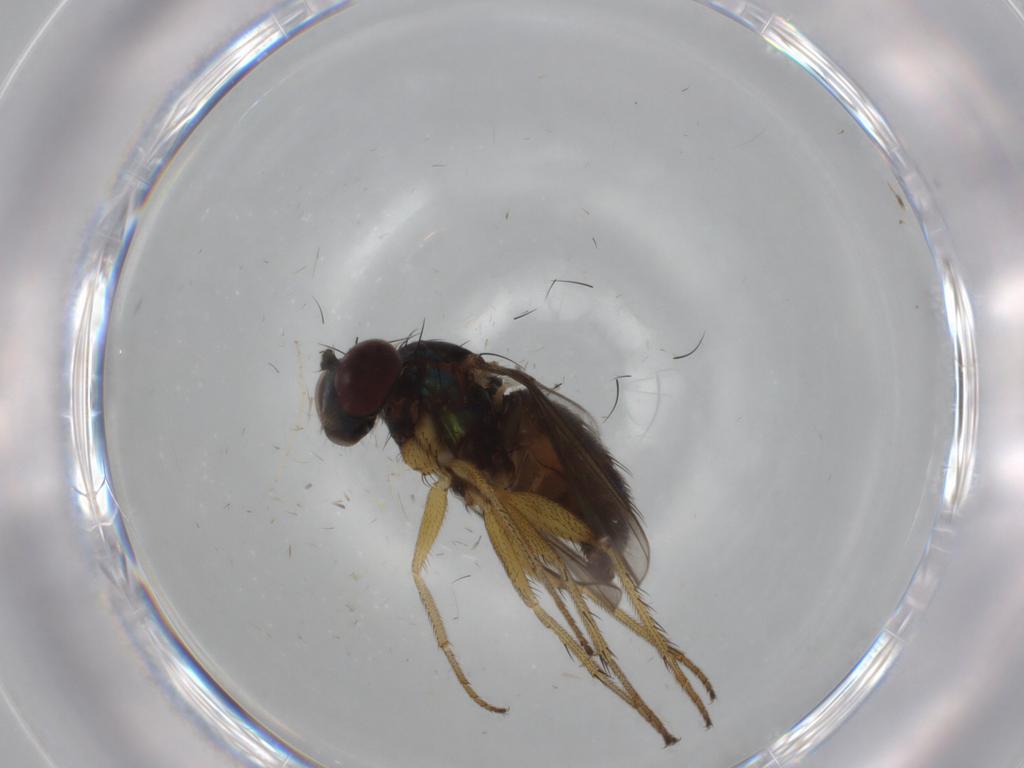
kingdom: Animalia
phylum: Arthropoda
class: Insecta
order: Diptera
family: Dolichopodidae
